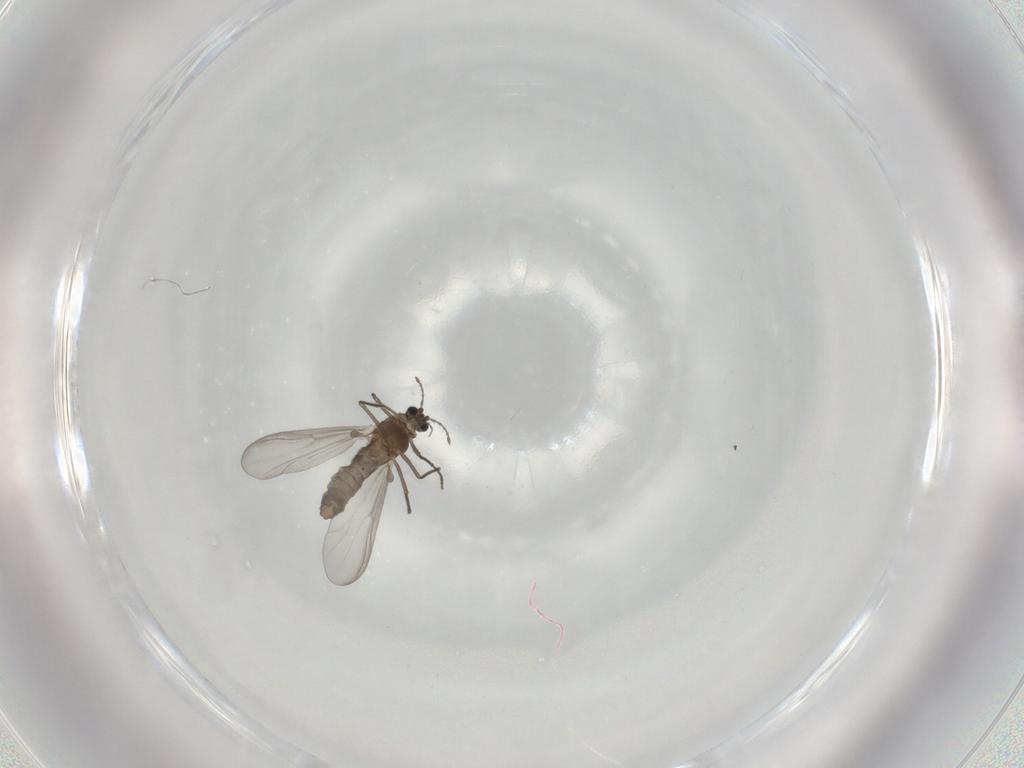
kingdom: Animalia
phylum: Arthropoda
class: Insecta
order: Diptera
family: Chironomidae
